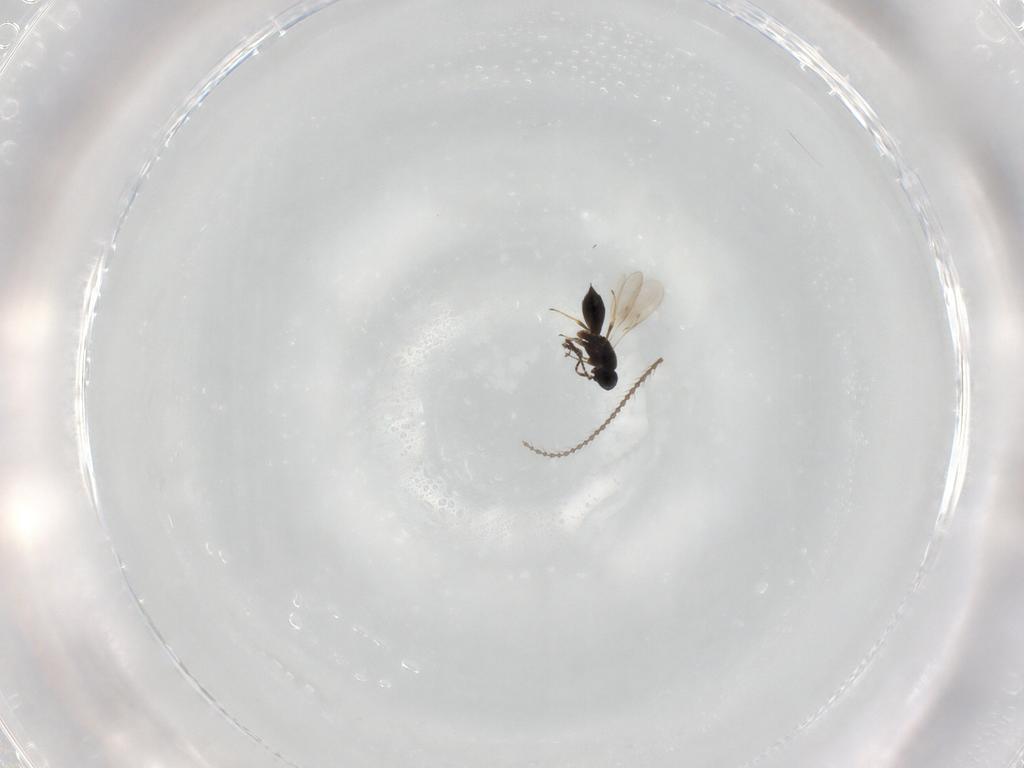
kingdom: Animalia
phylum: Arthropoda
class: Insecta
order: Hymenoptera
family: Scelionidae
